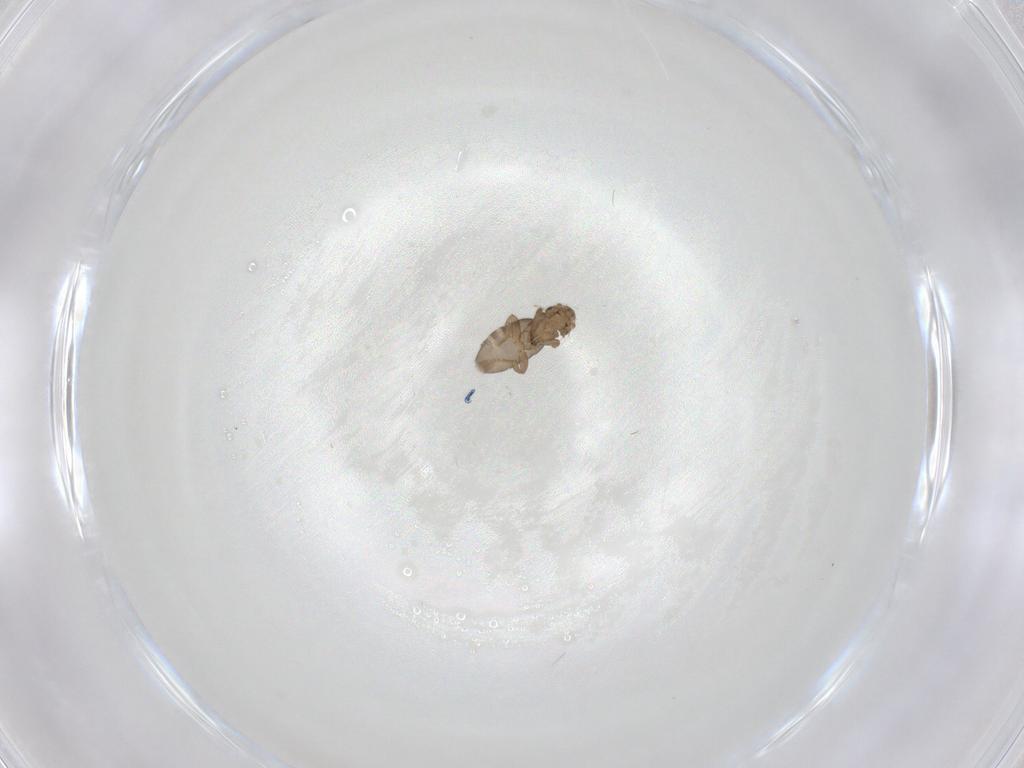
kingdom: Animalia
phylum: Arthropoda
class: Insecta
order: Diptera
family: Phoridae
